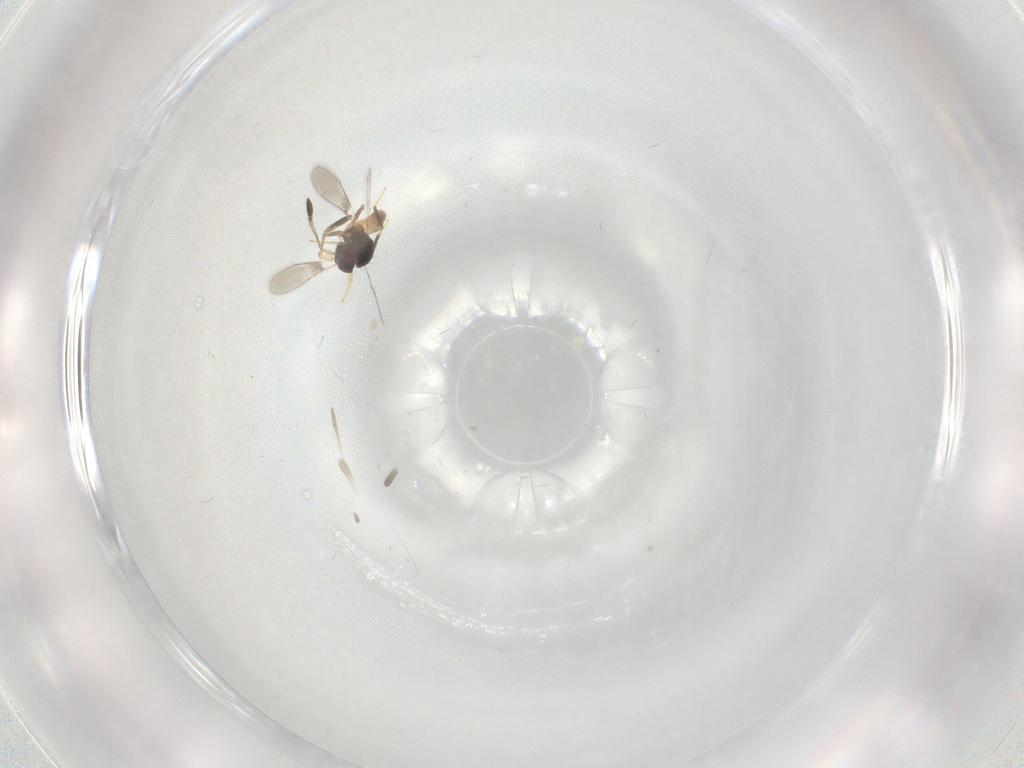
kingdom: Animalia
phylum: Arthropoda
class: Insecta
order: Hymenoptera
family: Mymaridae
